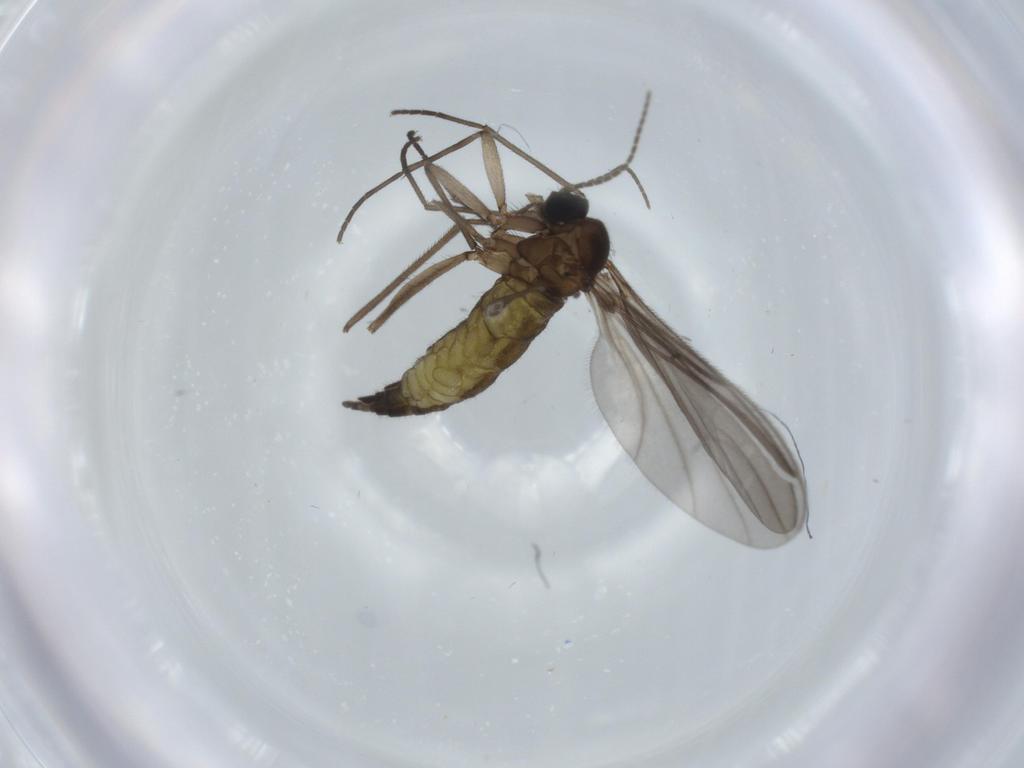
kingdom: Animalia
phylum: Arthropoda
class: Insecta
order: Diptera
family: Sciaridae
